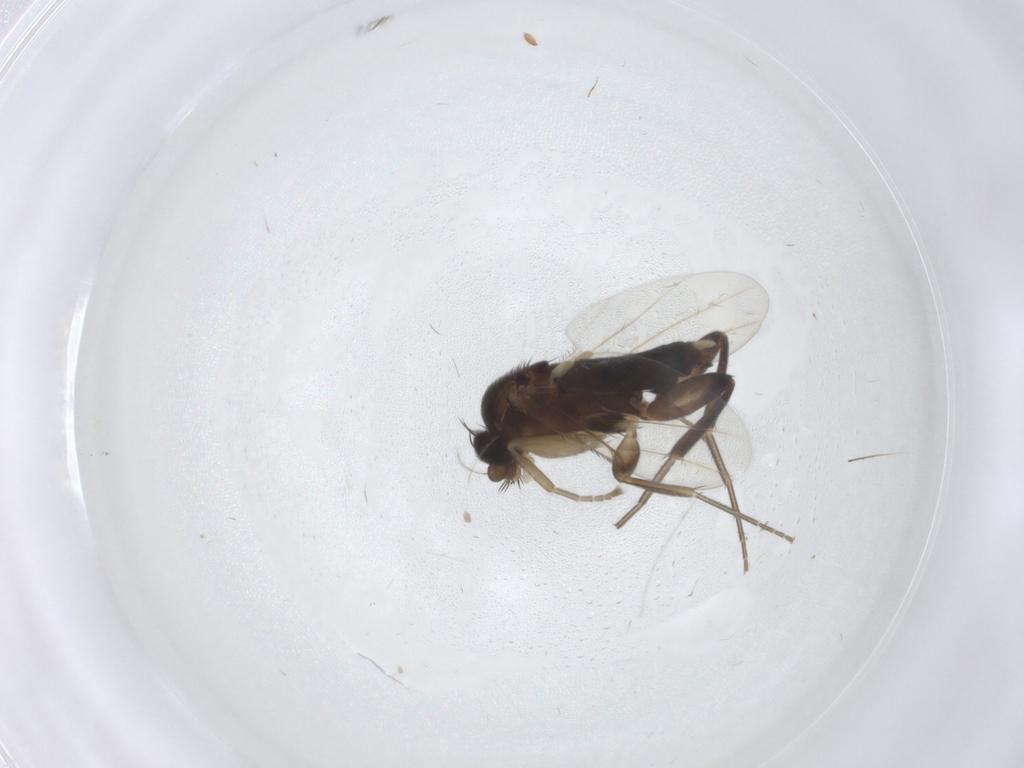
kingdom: Animalia
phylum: Arthropoda
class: Insecta
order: Diptera
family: Phoridae
